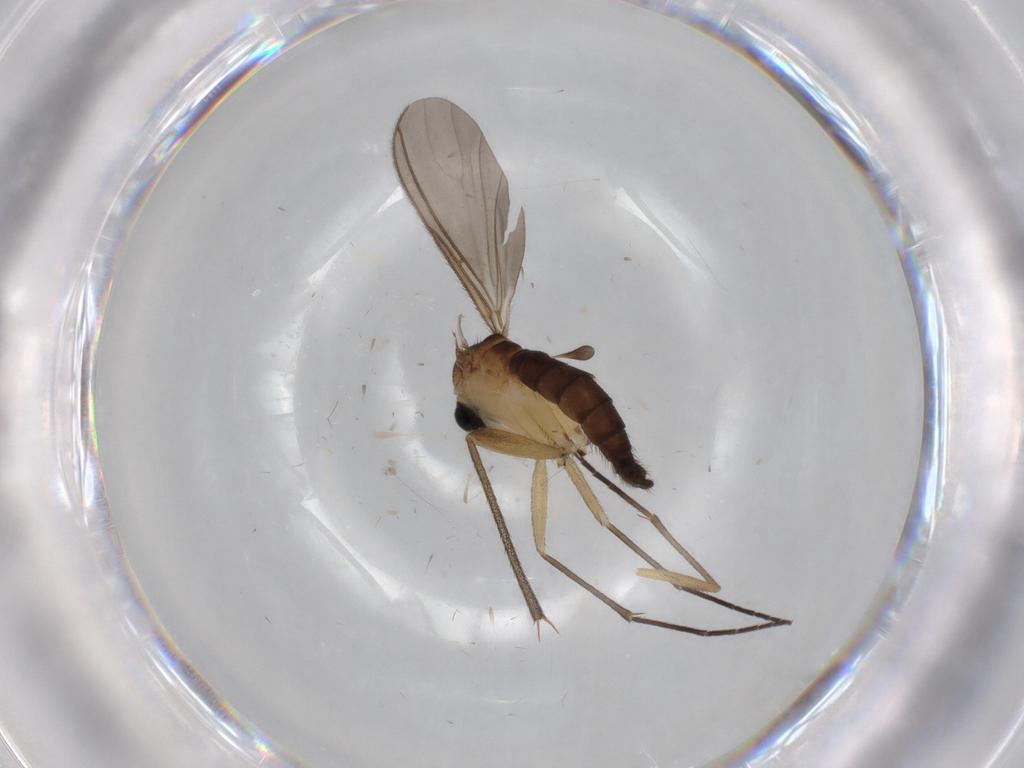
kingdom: Animalia
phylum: Arthropoda
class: Insecta
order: Diptera
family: Sciaridae
